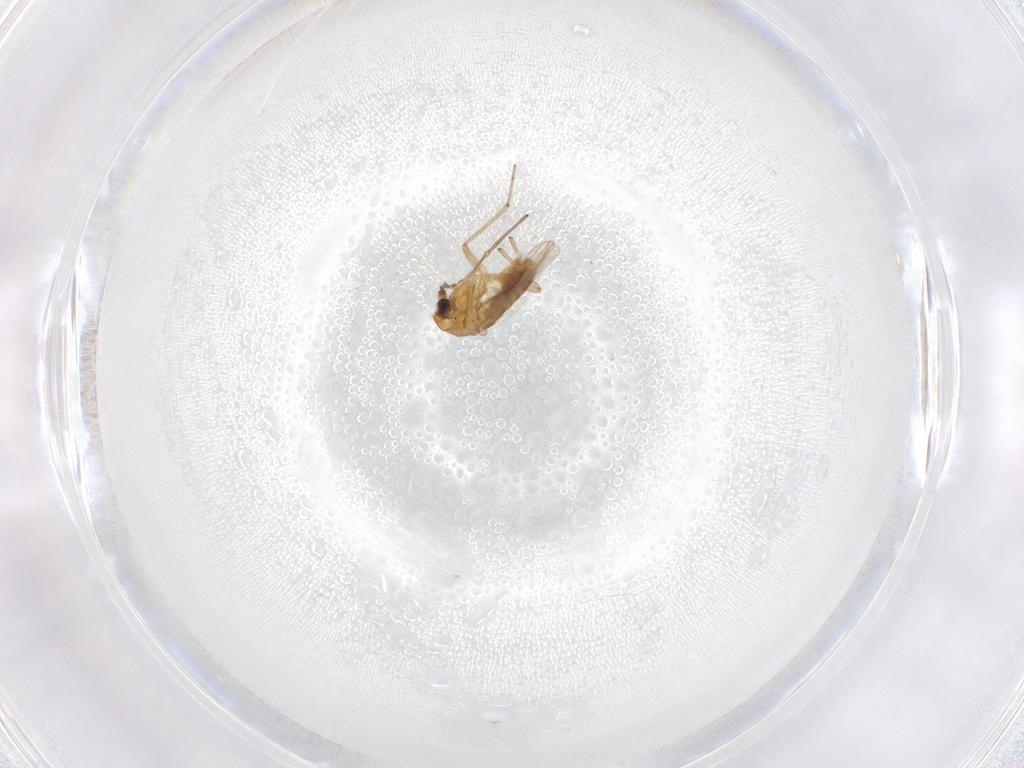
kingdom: Animalia
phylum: Arthropoda
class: Insecta
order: Diptera
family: Chironomidae
